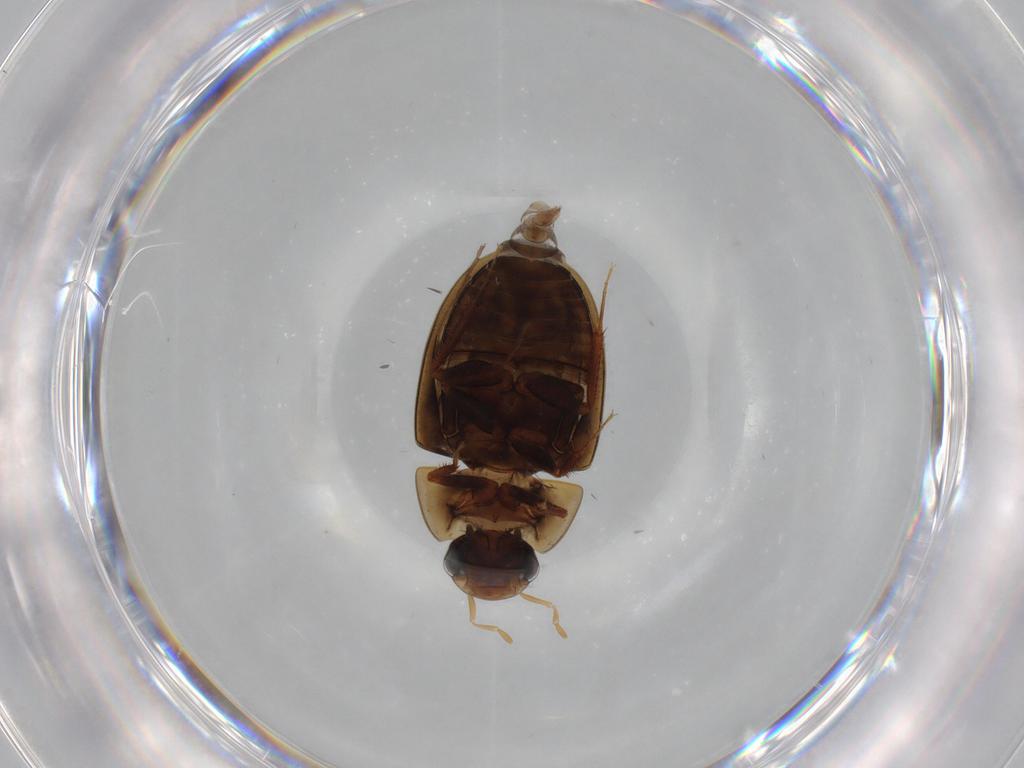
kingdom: Animalia
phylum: Arthropoda
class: Insecta
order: Diptera
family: Chironomidae
